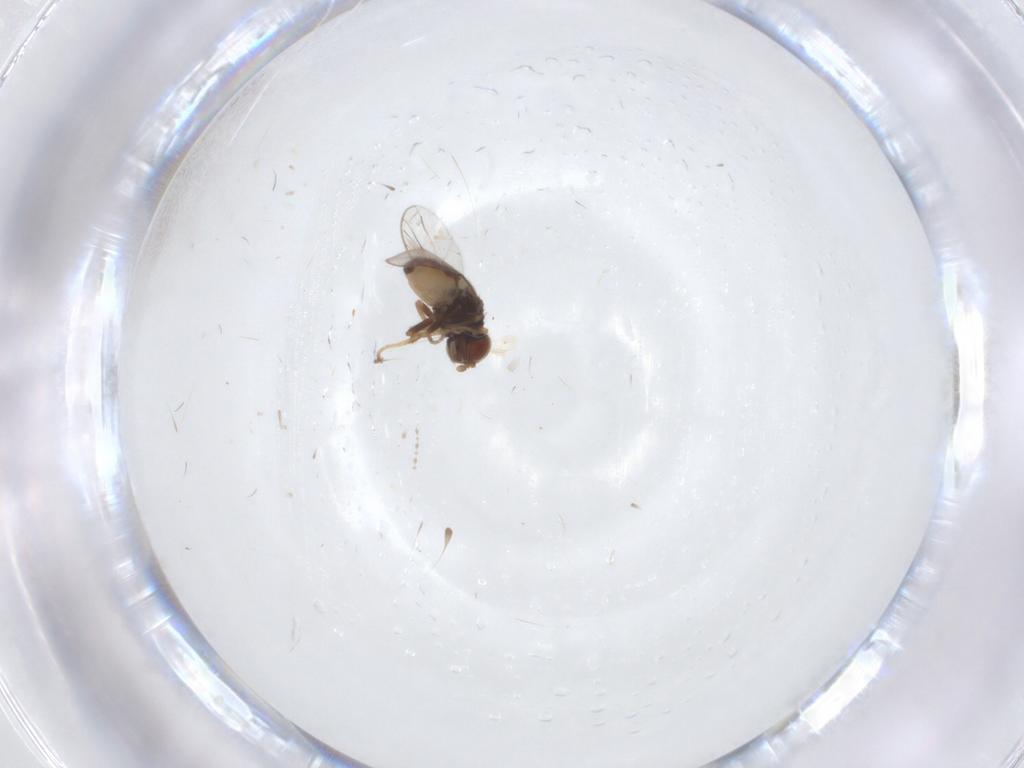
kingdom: Animalia
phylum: Arthropoda
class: Insecta
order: Diptera
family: Chloropidae
